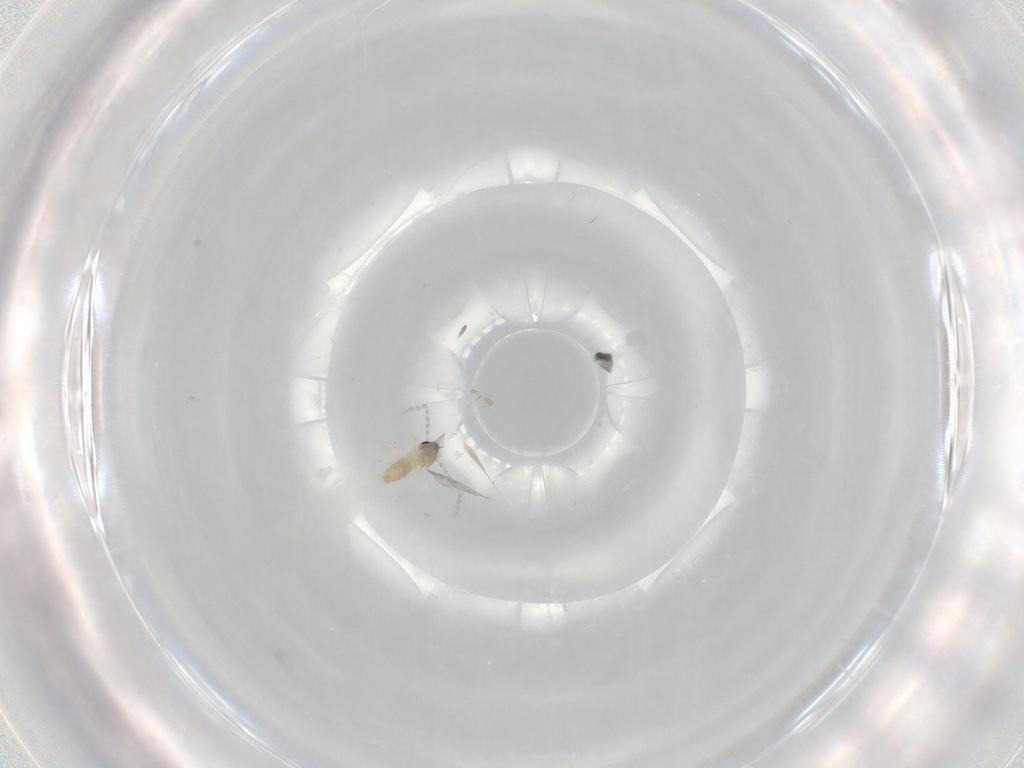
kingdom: Animalia
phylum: Arthropoda
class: Insecta
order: Diptera
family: Cecidomyiidae
